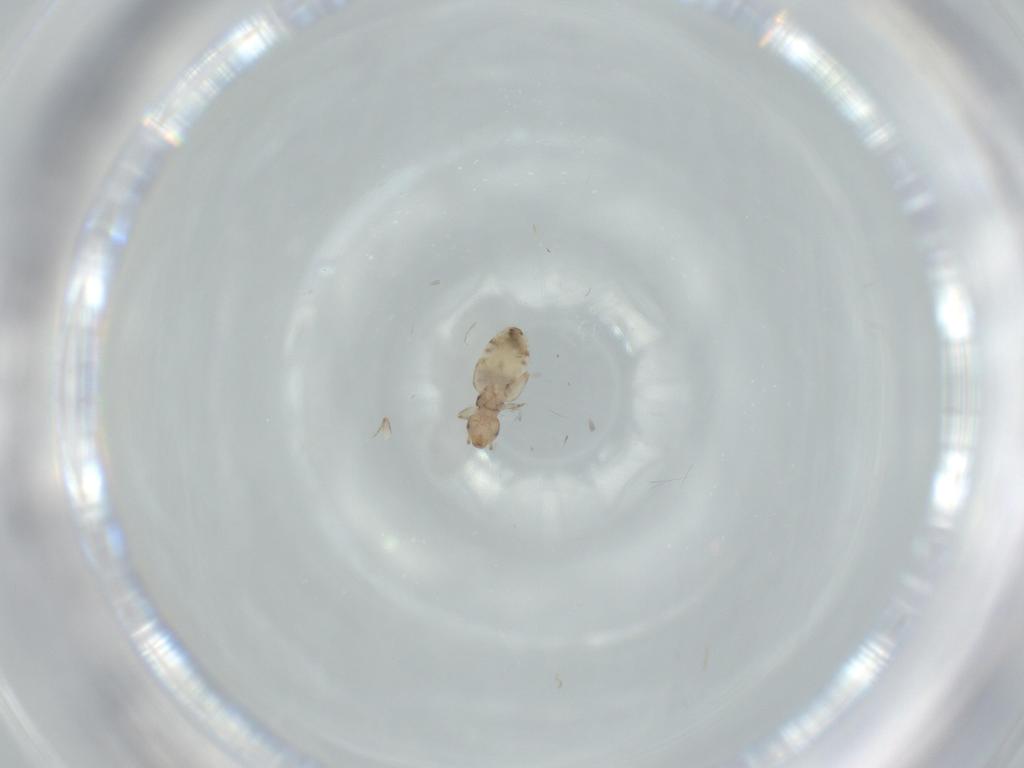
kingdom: Animalia
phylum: Arthropoda
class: Insecta
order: Psocodea
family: Liposcelididae
